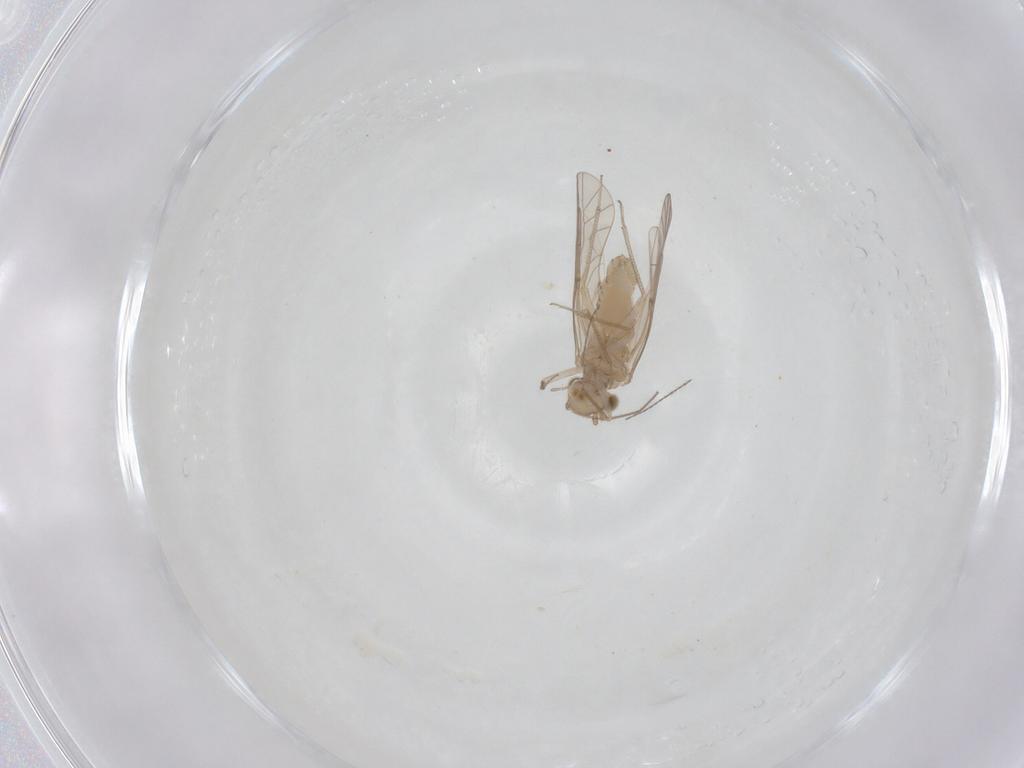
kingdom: Animalia
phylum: Arthropoda
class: Insecta
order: Psocodea
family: Lachesillidae
